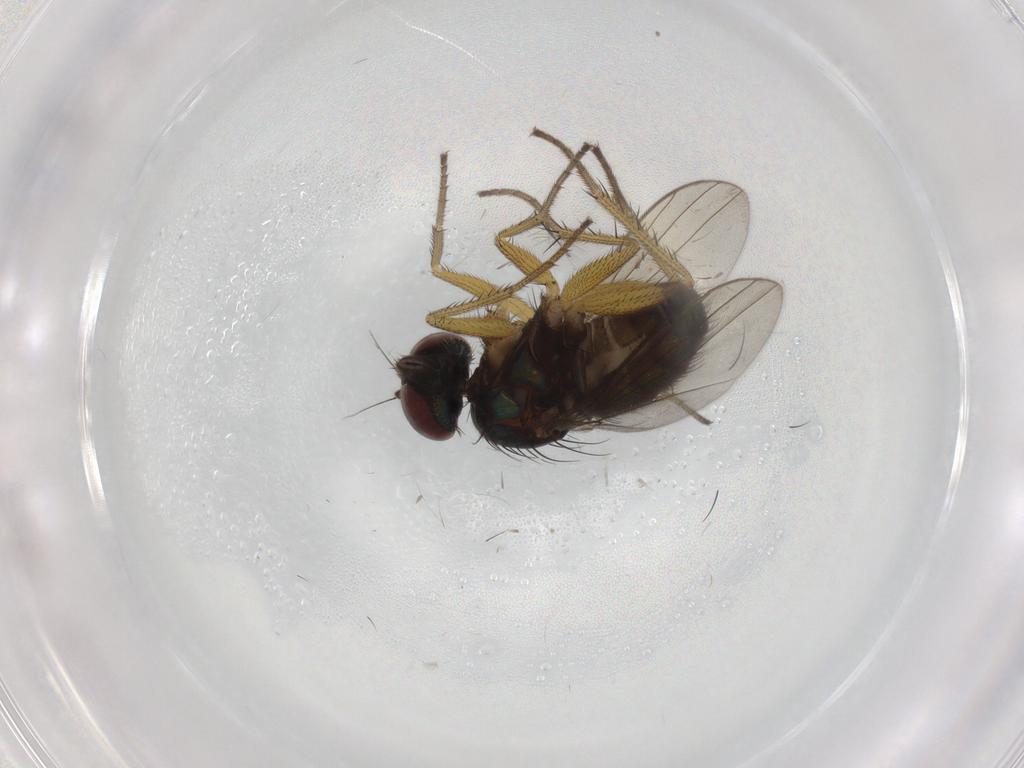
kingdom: Animalia
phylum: Arthropoda
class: Insecta
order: Diptera
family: Dolichopodidae
